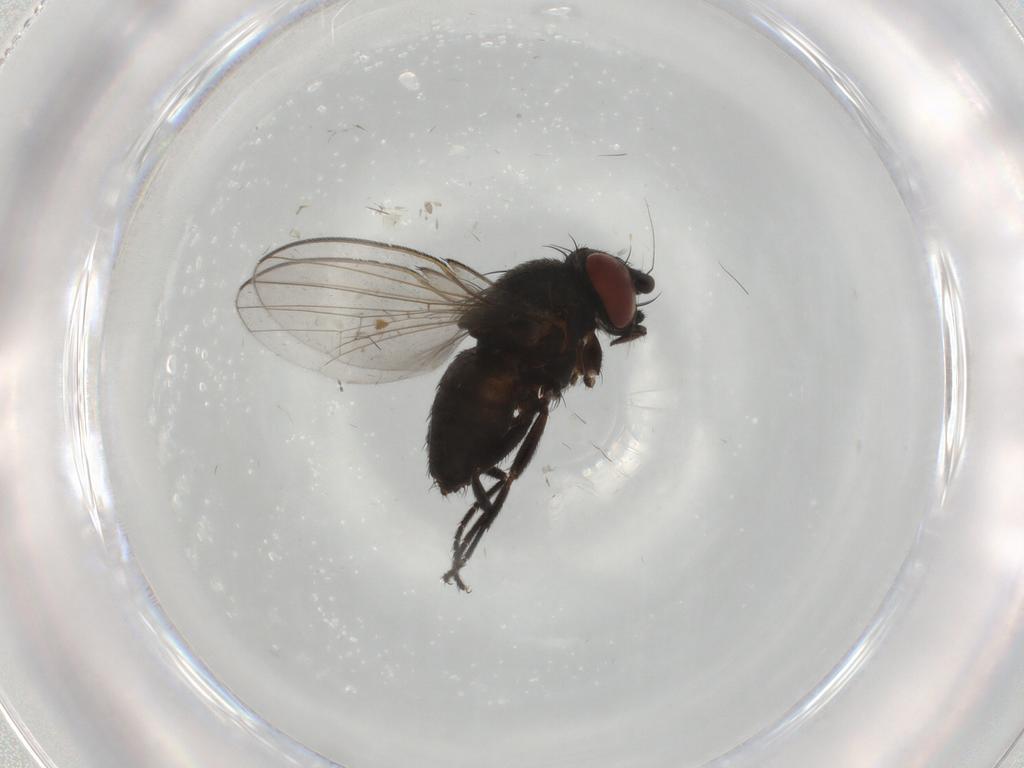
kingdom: Animalia
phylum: Arthropoda
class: Insecta
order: Diptera
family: Milichiidae
